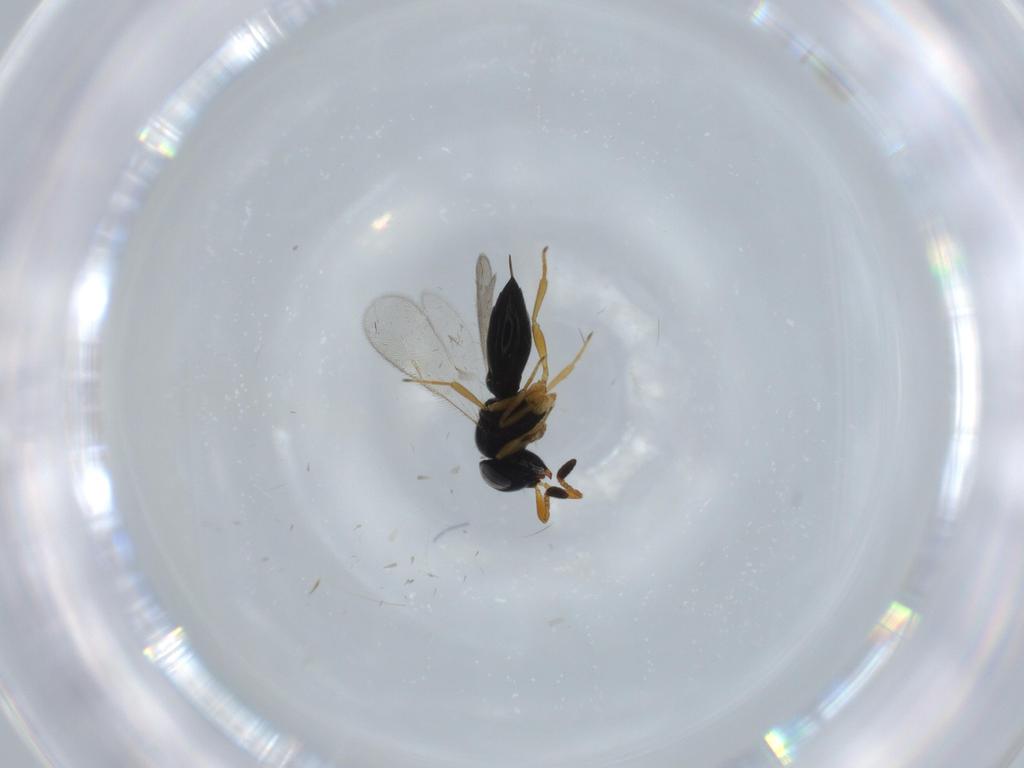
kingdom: Animalia
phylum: Arthropoda
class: Insecta
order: Hymenoptera
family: Scelionidae
